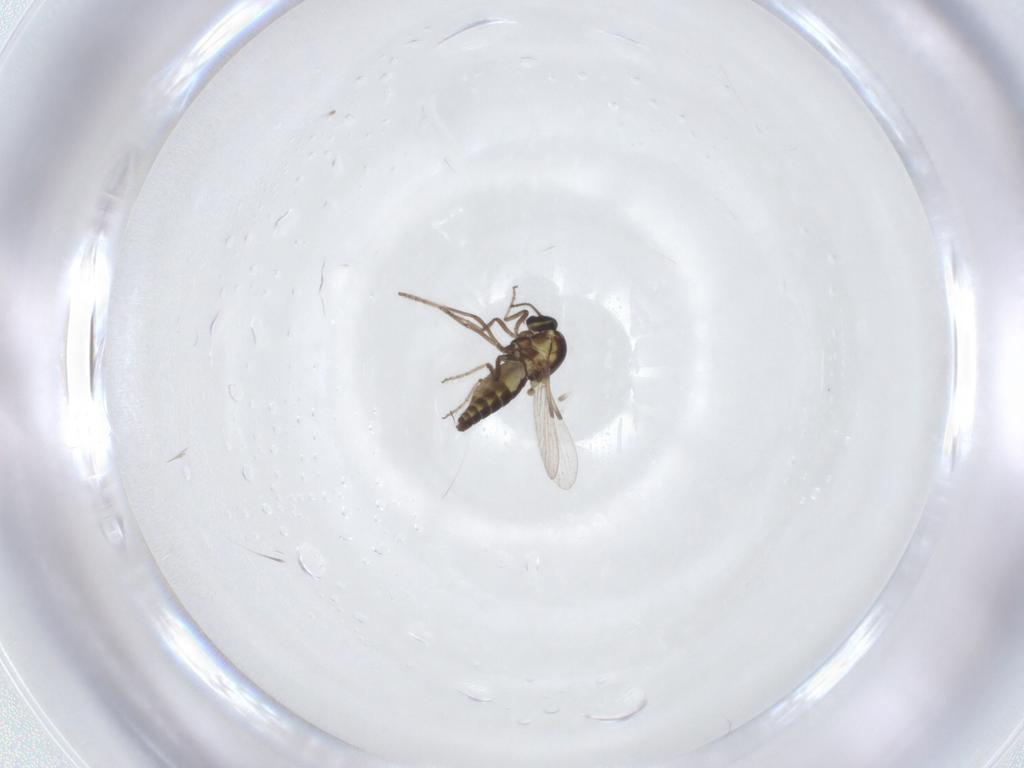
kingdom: Animalia
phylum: Arthropoda
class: Insecta
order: Diptera
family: Ceratopogonidae
